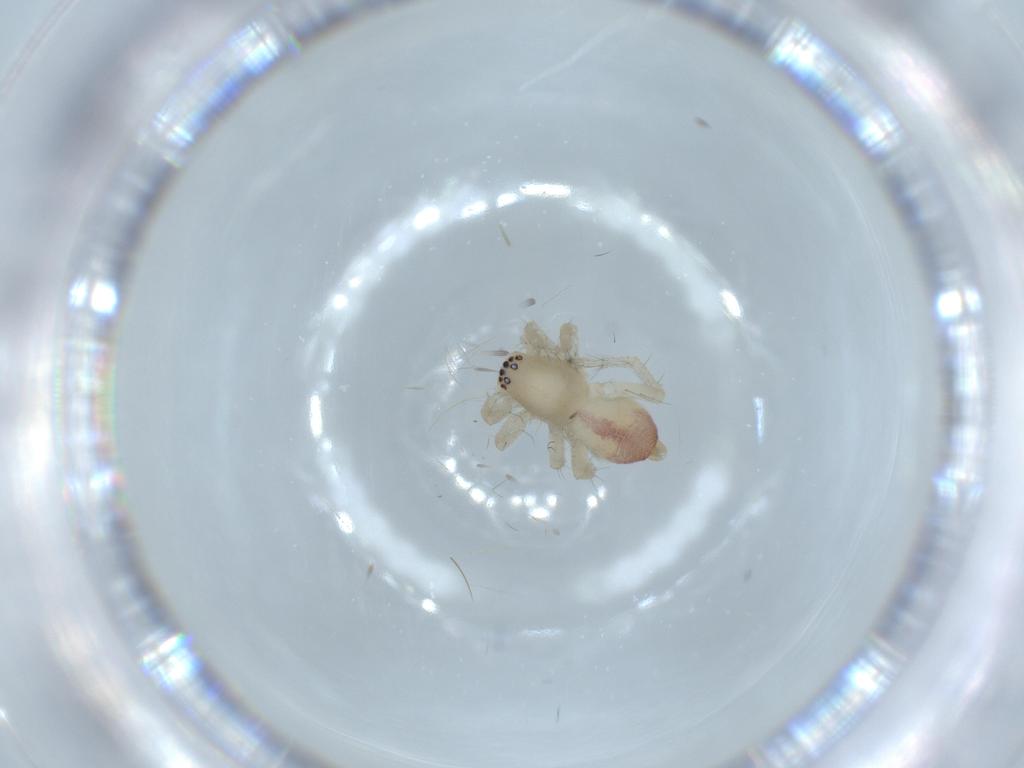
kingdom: Animalia
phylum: Arthropoda
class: Arachnida
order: Araneae
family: Clubionidae
